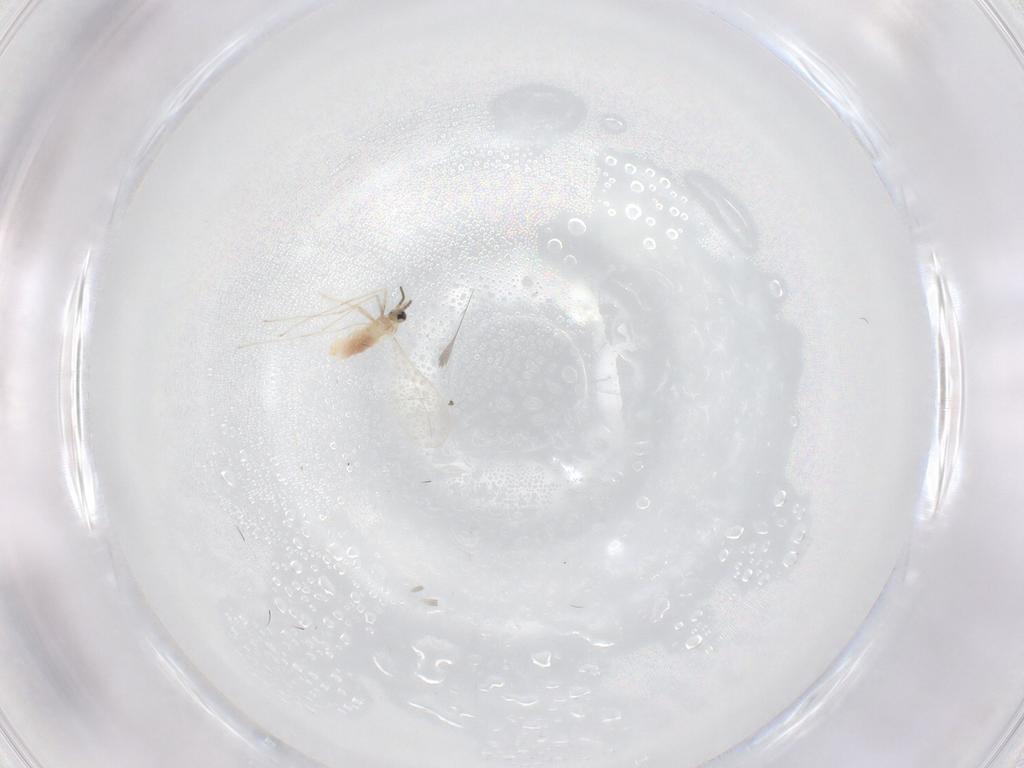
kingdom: Animalia
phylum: Arthropoda
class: Insecta
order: Diptera
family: Cecidomyiidae
